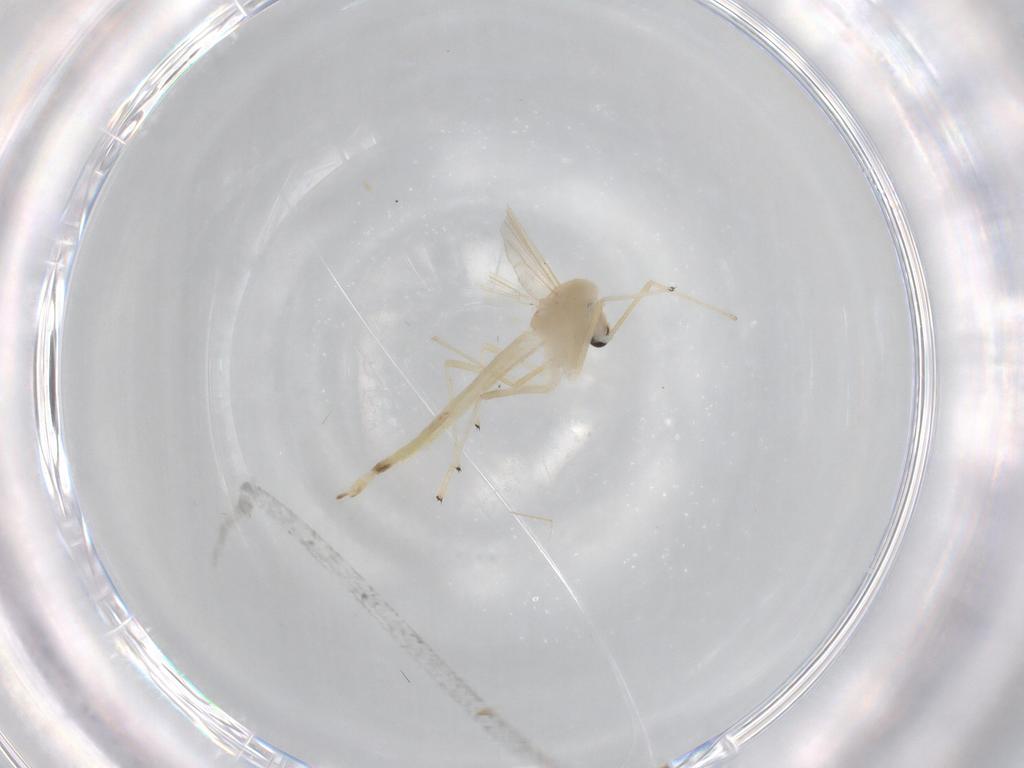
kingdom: Animalia
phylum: Arthropoda
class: Insecta
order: Diptera
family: Chironomidae
